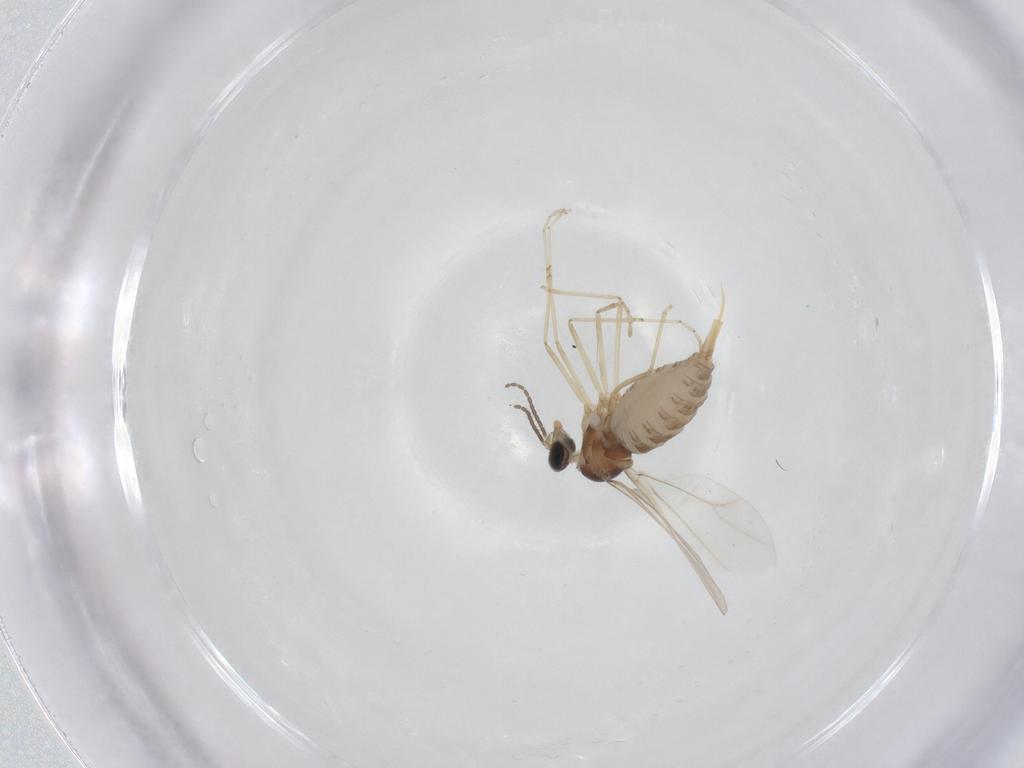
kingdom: Animalia
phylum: Arthropoda
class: Insecta
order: Diptera
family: Cecidomyiidae
